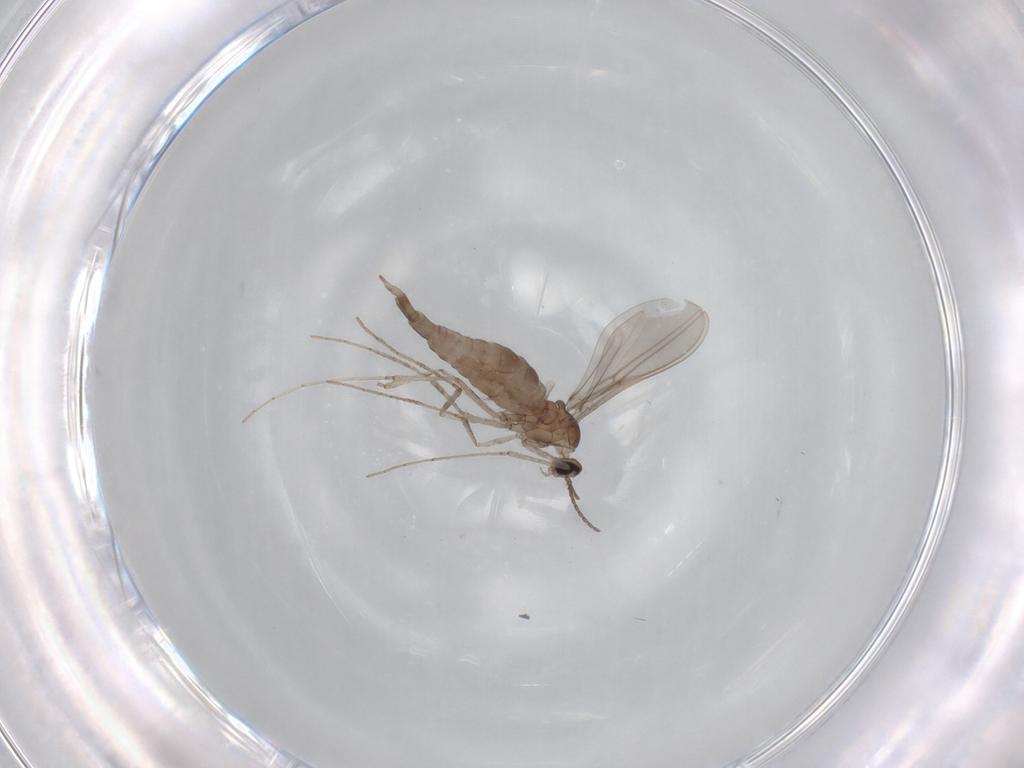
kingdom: Animalia
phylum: Arthropoda
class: Insecta
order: Diptera
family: Cecidomyiidae
